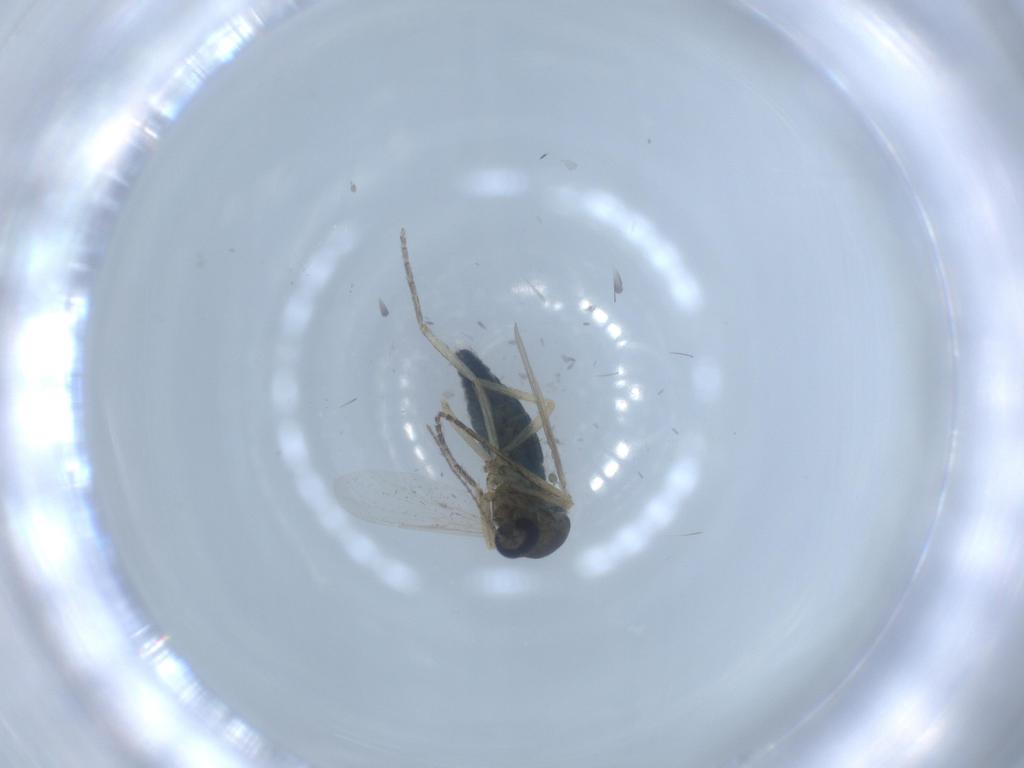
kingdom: Animalia
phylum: Arthropoda
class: Insecta
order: Diptera
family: Ceratopogonidae
